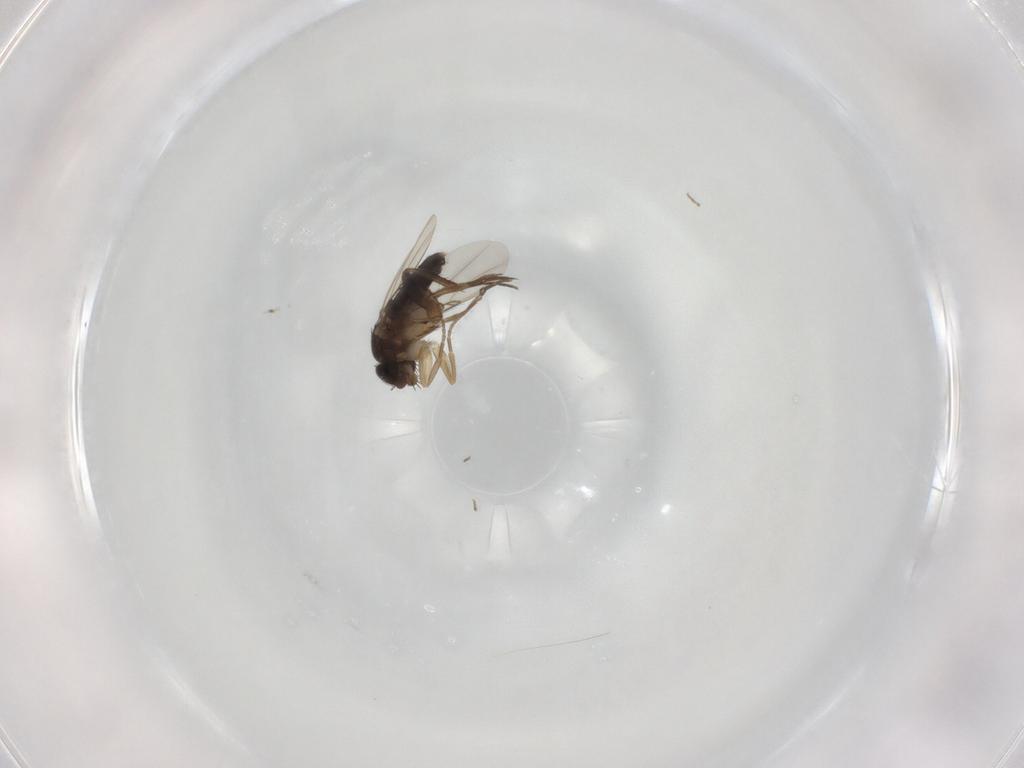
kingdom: Animalia
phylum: Arthropoda
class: Insecta
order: Diptera
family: Phoridae
